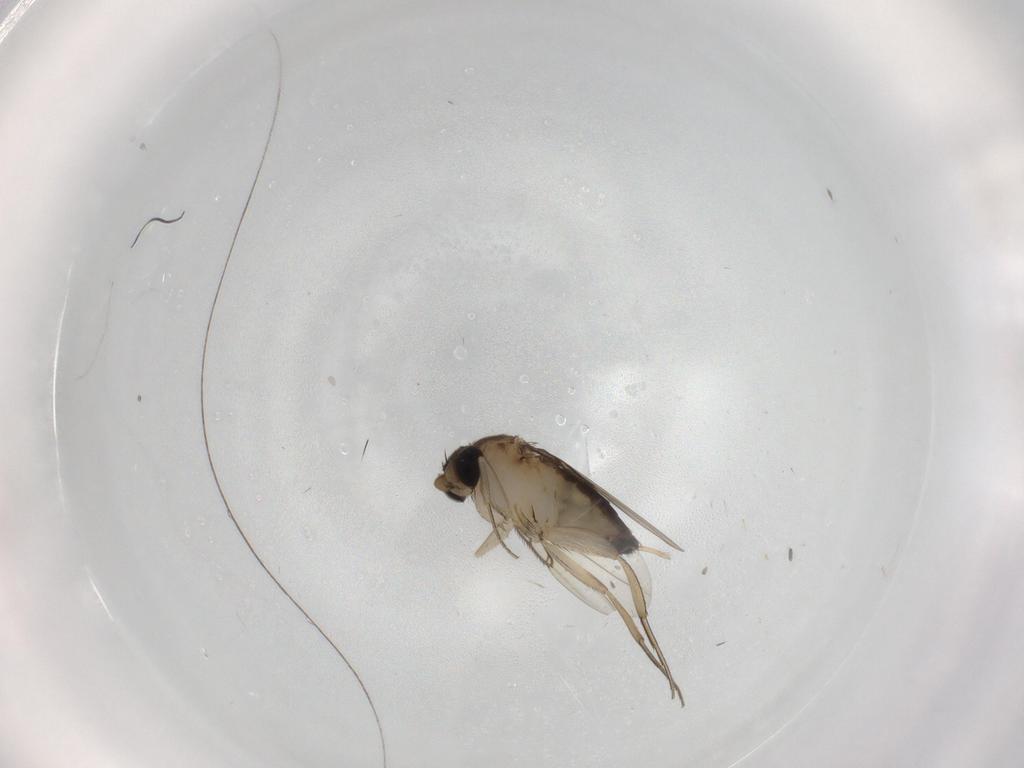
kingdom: Animalia
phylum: Arthropoda
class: Insecta
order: Diptera
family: Phoridae
